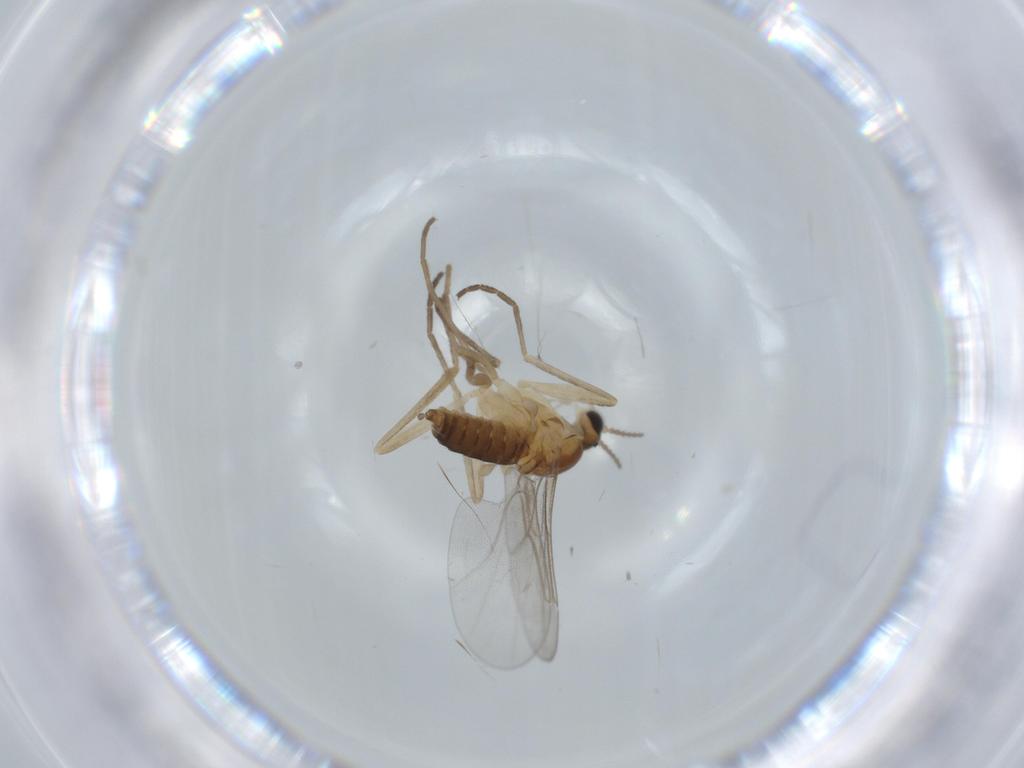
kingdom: Animalia
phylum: Arthropoda
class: Insecta
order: Diptera
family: Cecidomyiidae
